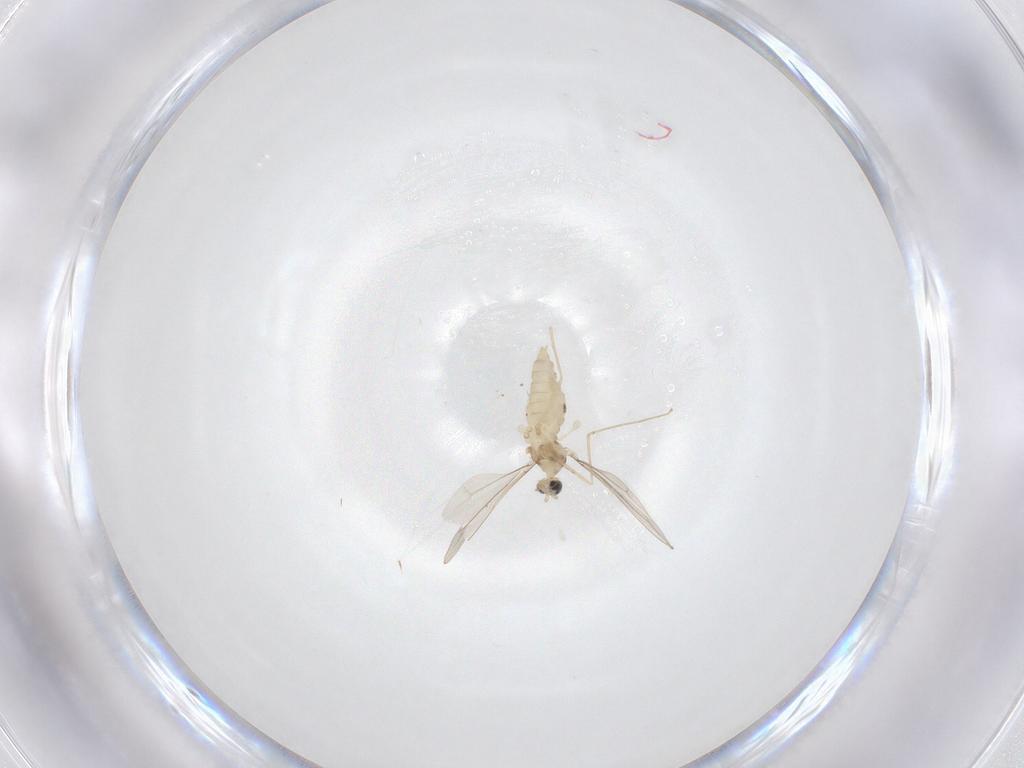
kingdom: Animalia
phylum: Arthropoda
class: Insecta
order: Diptera
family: Cecidomyiidae
